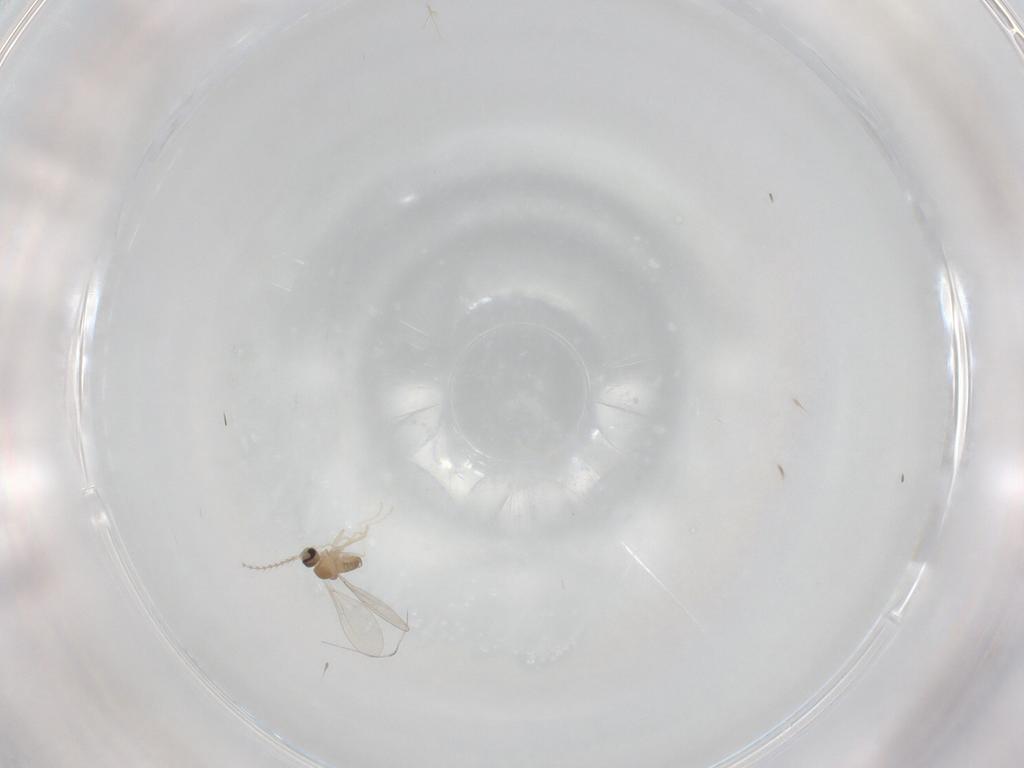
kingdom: Animalia
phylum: Arthropoda
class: Insecta
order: Diptera
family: Cecidomyiidae
